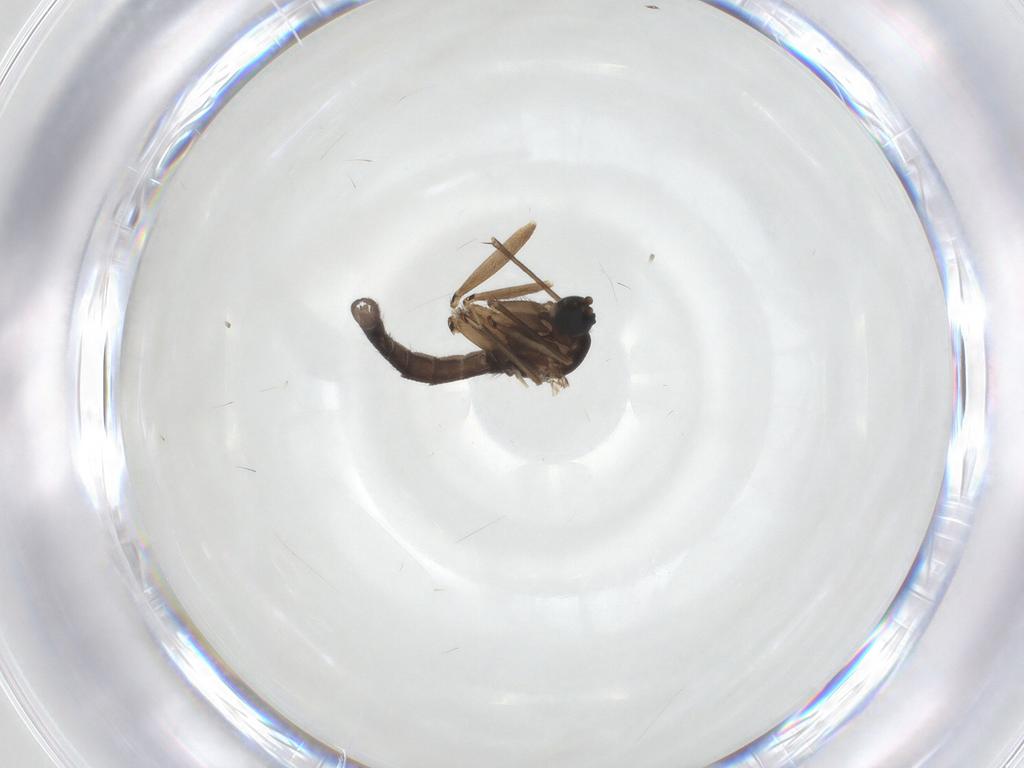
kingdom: Animalia
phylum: Arthropoda
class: Insecta
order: Diptera
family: Sciaridae
